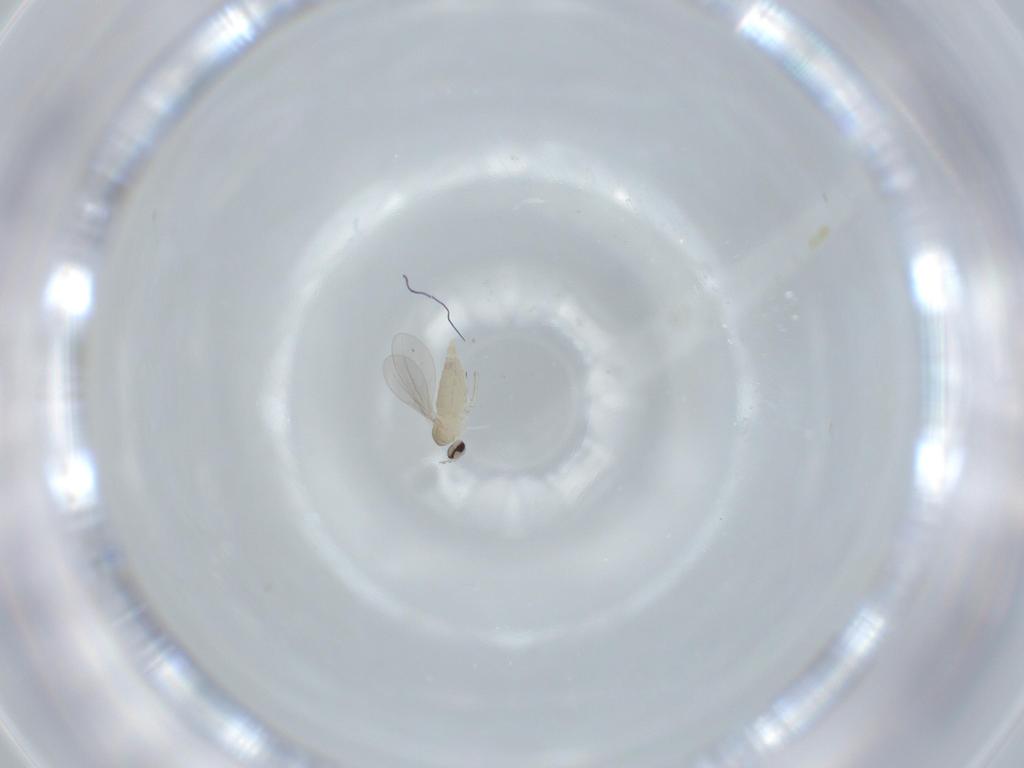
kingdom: Animalia
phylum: Arthropoda
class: Insecta
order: Diptera
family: Cecidomyiidae
